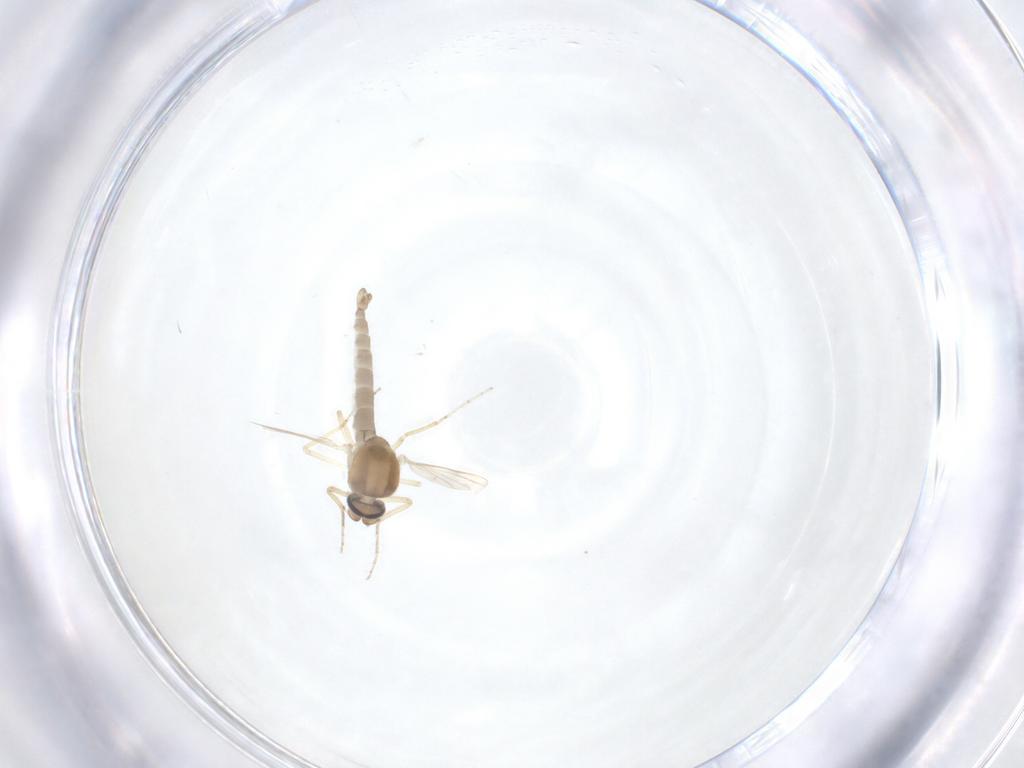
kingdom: Animalia
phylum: Arthropoda
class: Insecta
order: Diptera
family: Ceratopogonidae
